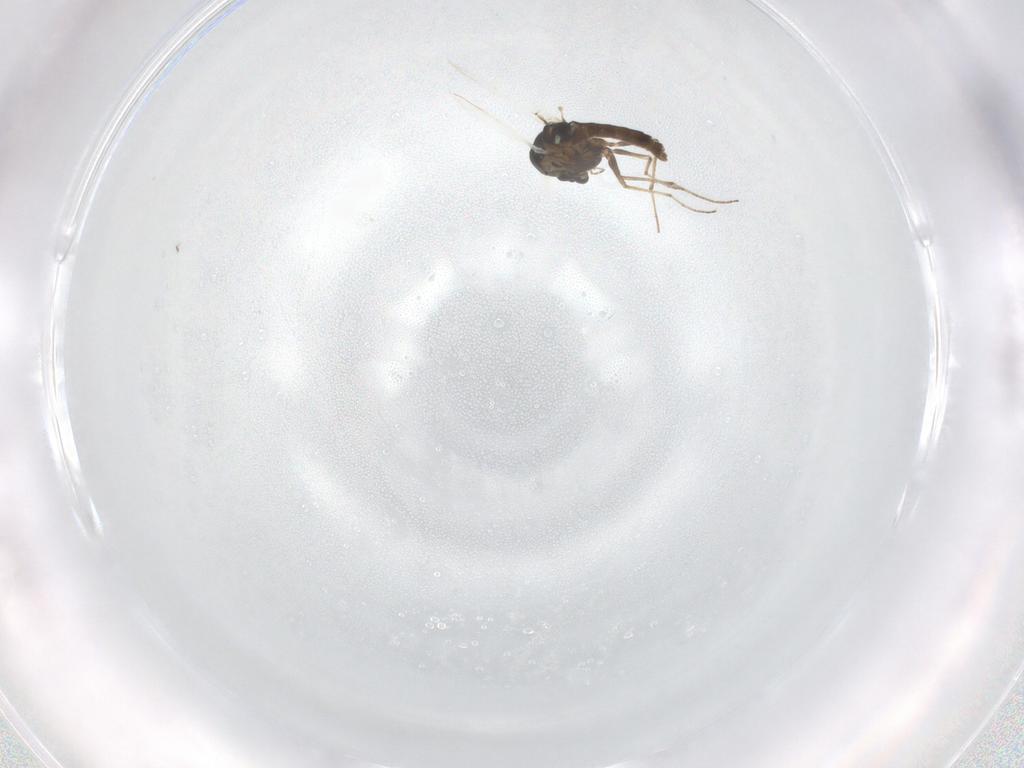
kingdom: Animalia
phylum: Arthropoda
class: Insecta
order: Diptera
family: Chironomidae
